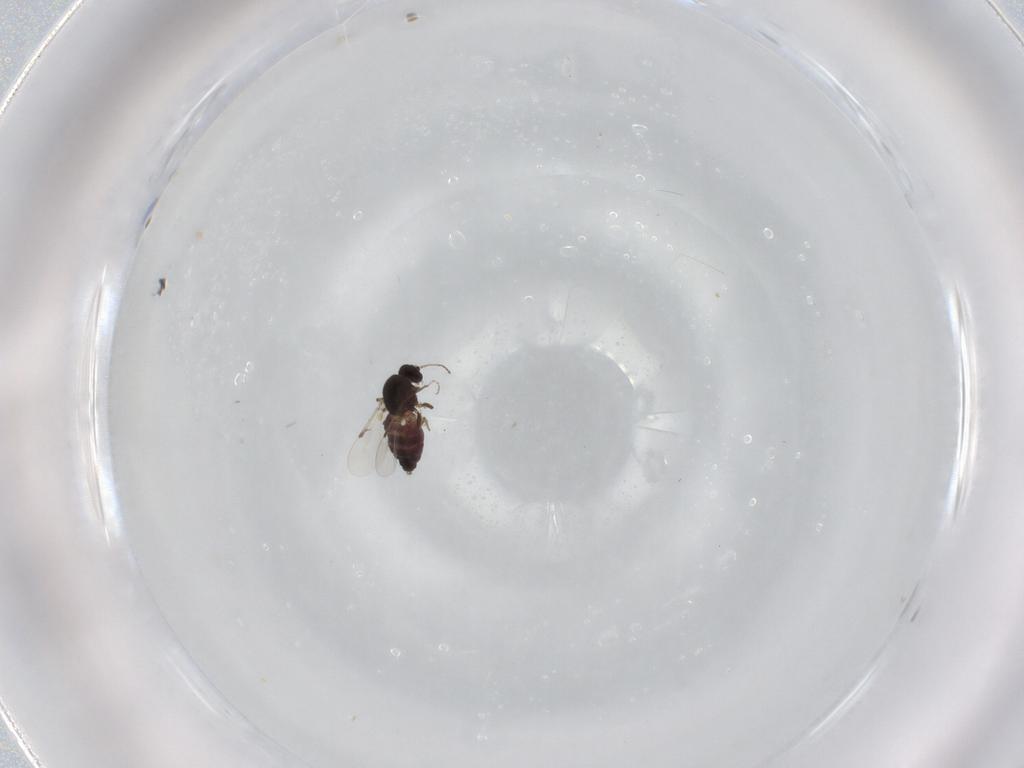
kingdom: Animalia
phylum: Arthropoda
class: Insecta
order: Diptera
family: Ceratopogonidae
